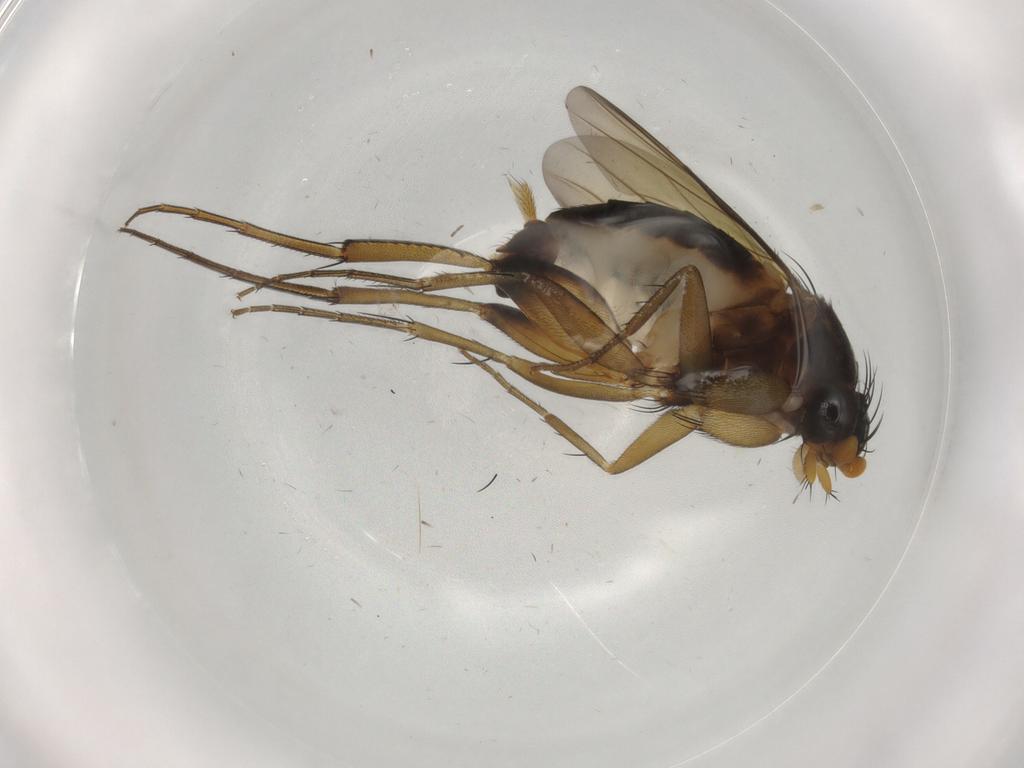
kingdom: Animalia
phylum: Arthropoda
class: Insecta
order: Diptera
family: Phoridae
